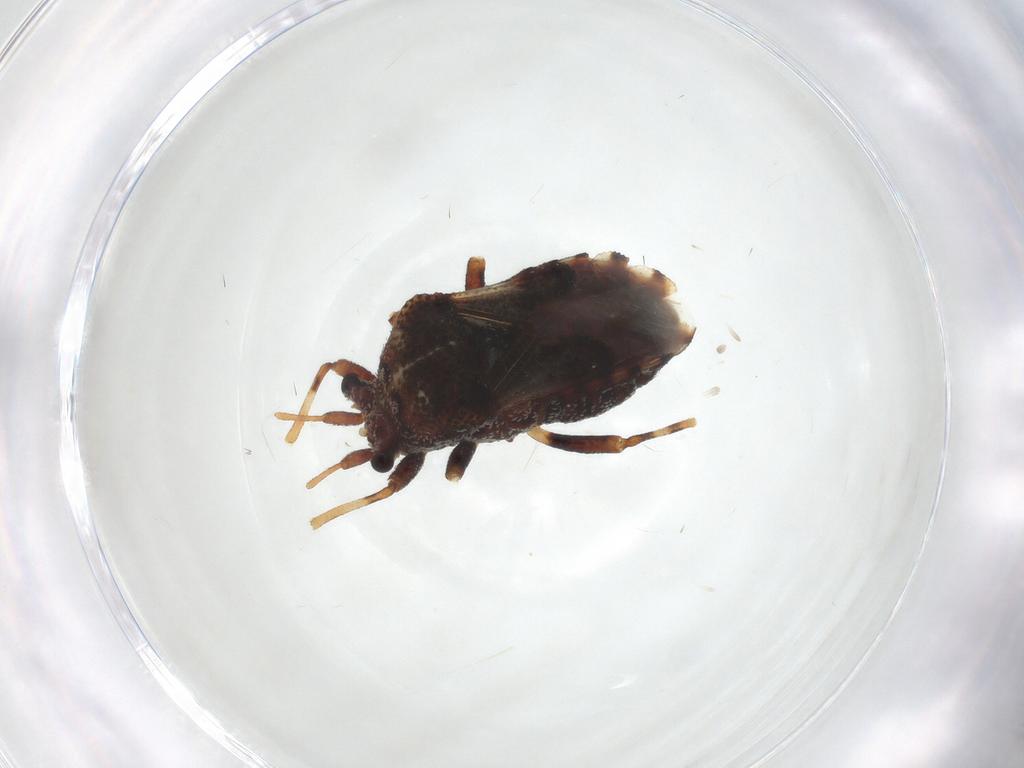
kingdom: Animalia
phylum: Arthropoda
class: Insecta
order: Hemiptera
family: Malcidae
